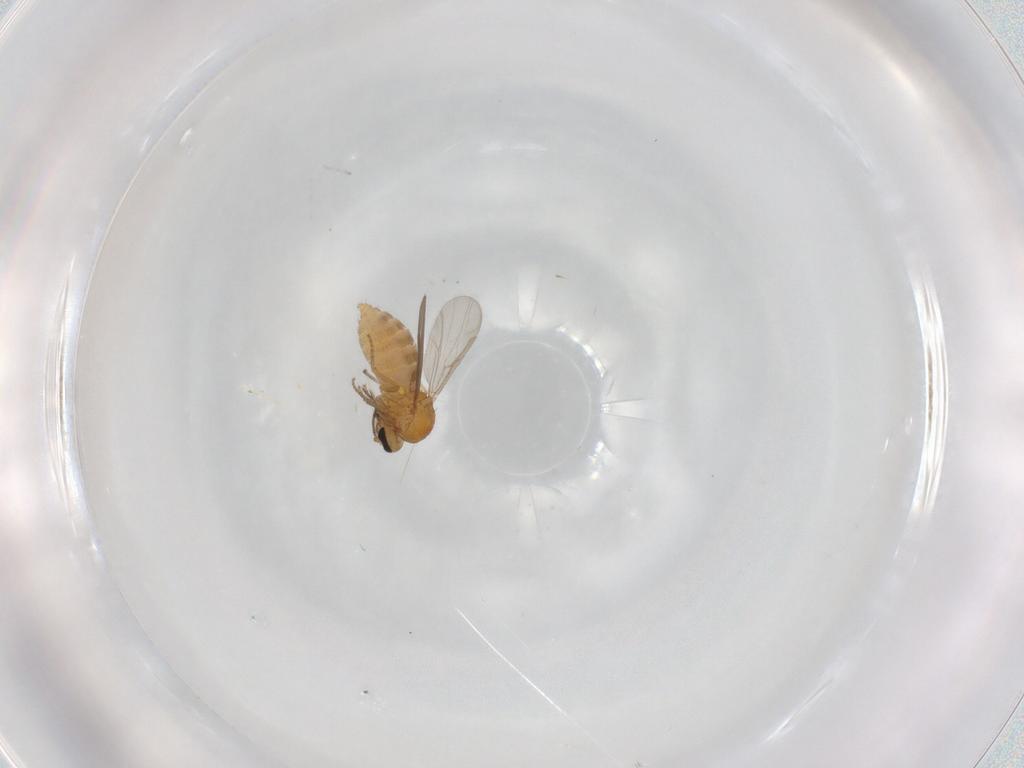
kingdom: Animalia
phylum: Arthropoda
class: Insecta
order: Diptera
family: Ceratopogonidae
